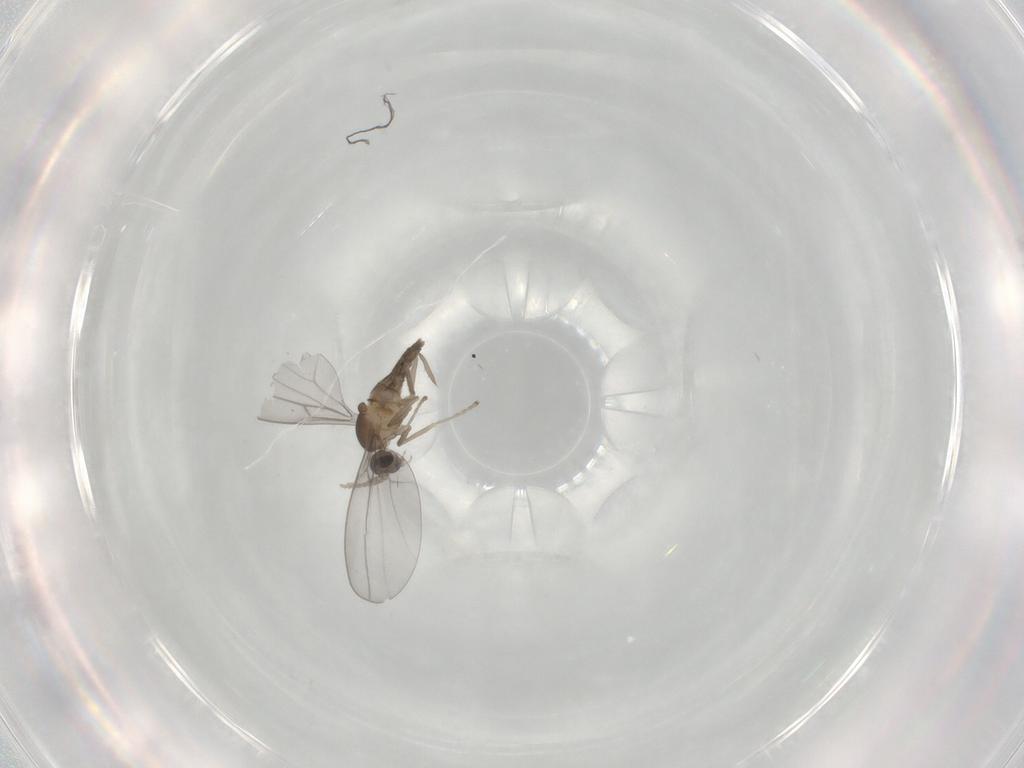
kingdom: Animalia
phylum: Arthropoda
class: Insecta
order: Diptera
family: Cecidomyiidae
